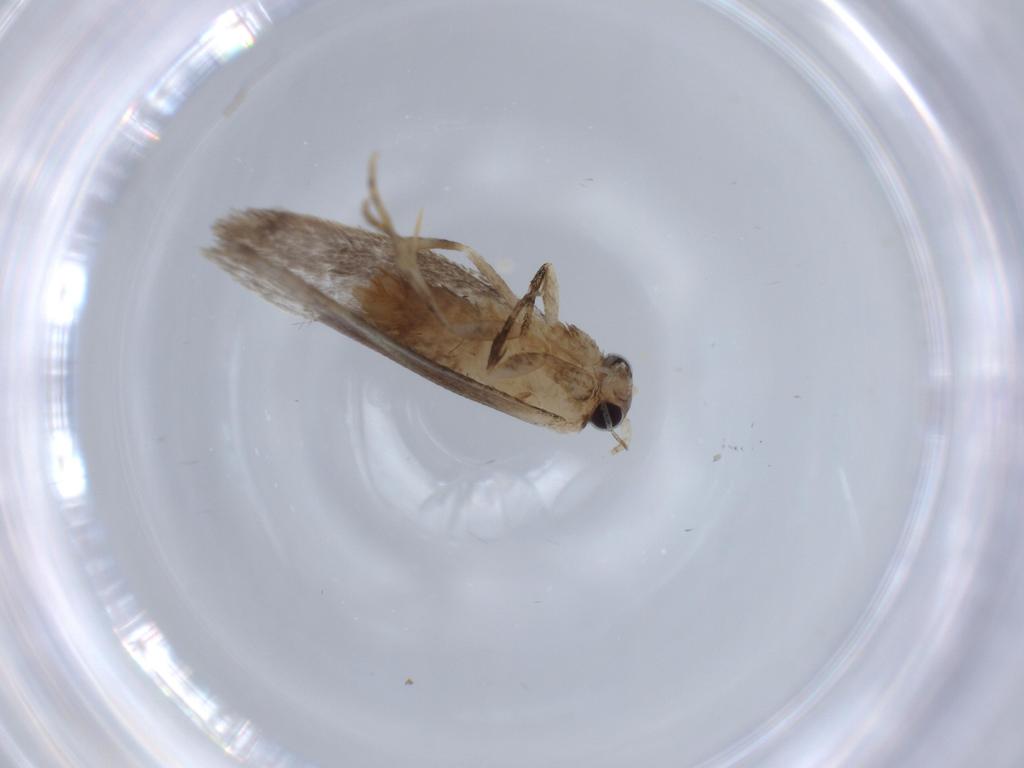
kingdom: Animalia
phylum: Arthropoda
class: Insecta
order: Lepidoptera
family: Tineidae
